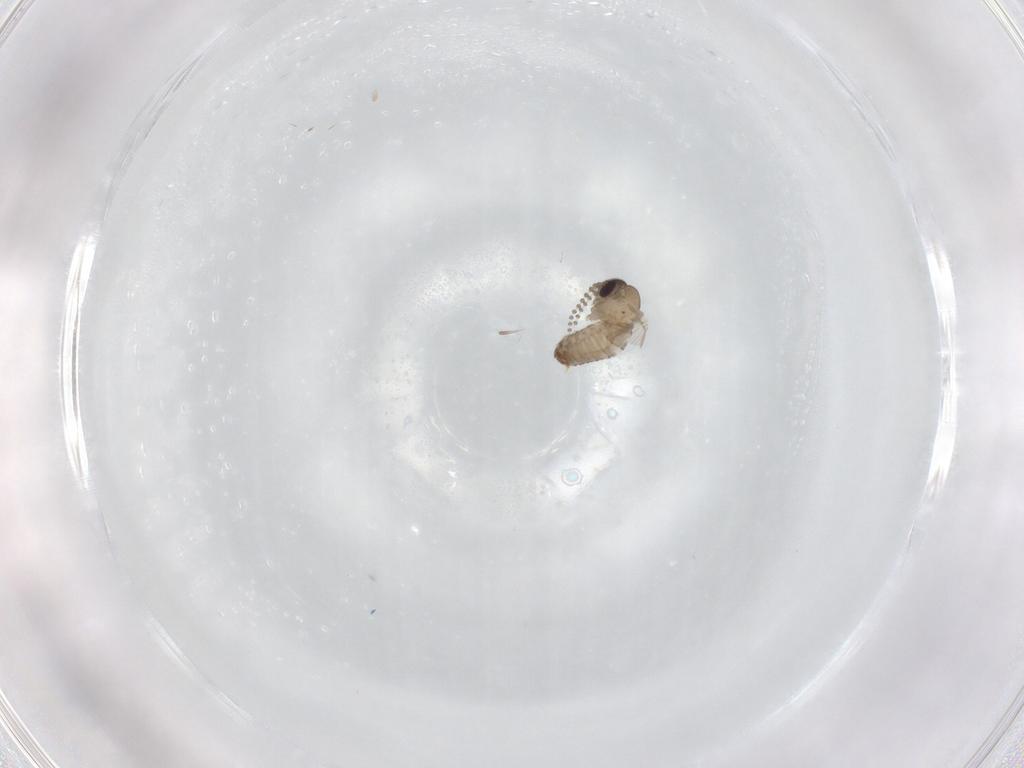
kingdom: Animalia
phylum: Arthropoda
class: Insecta
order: Diptera
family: Psychodidae
